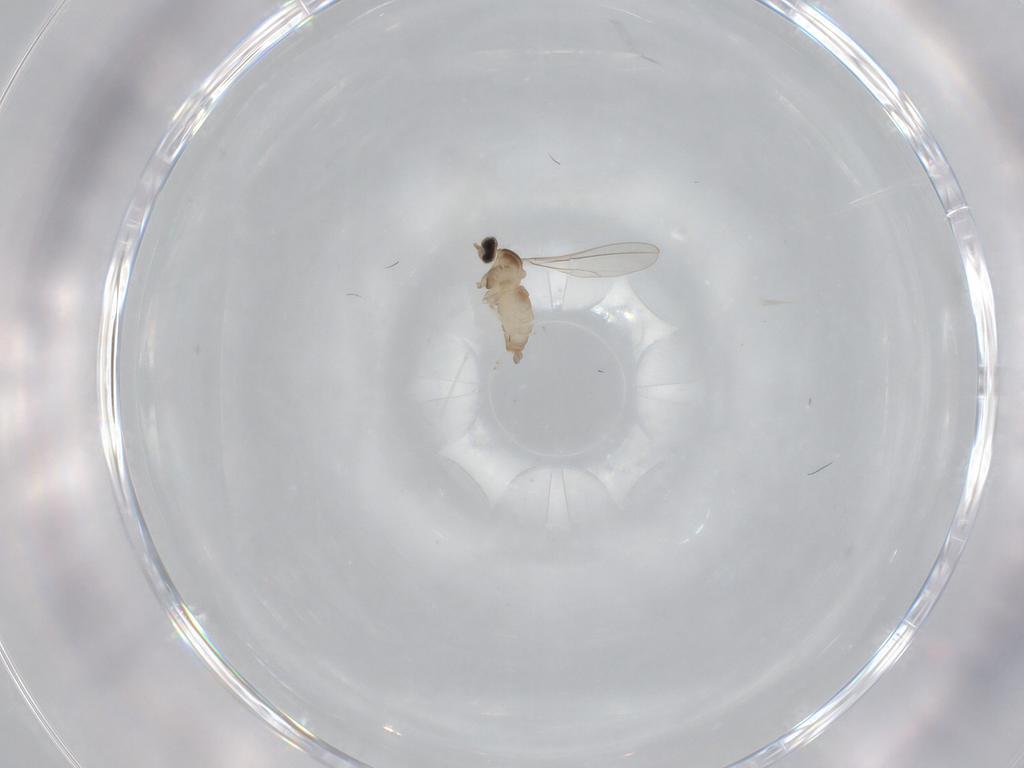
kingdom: Animalia
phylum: Arthropoda
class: Insecta
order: Diptera
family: Cecidomyiidae
